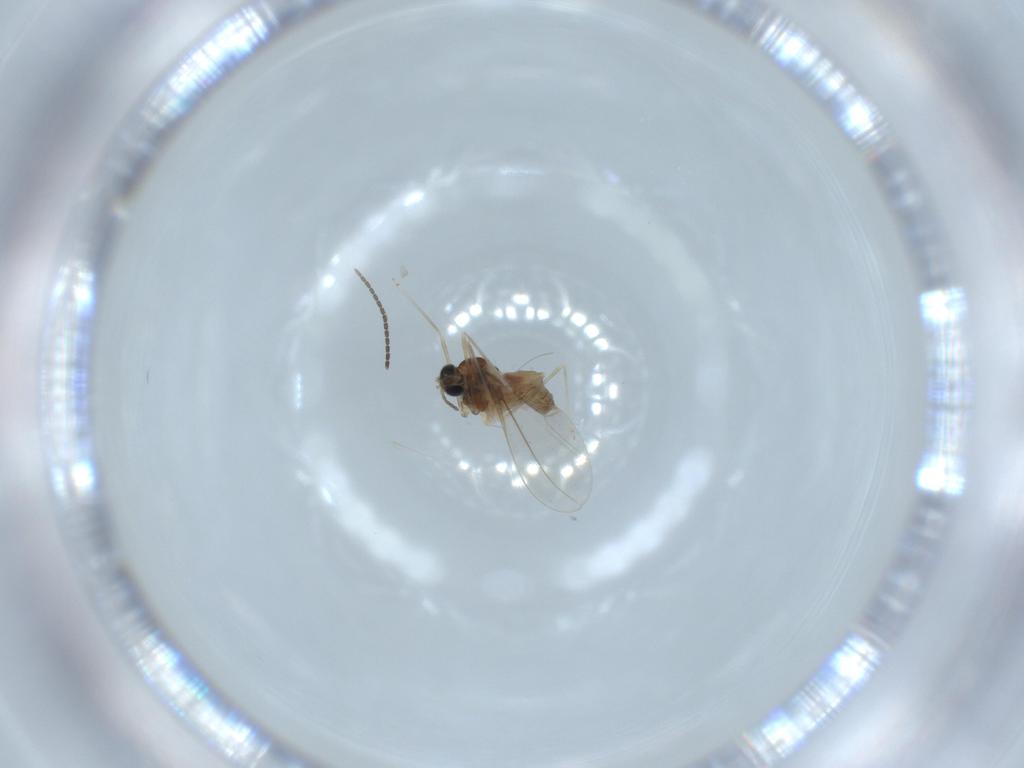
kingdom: Animalia
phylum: Arthropoda
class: Insecta
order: Diptera
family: Cecidomyiidae
